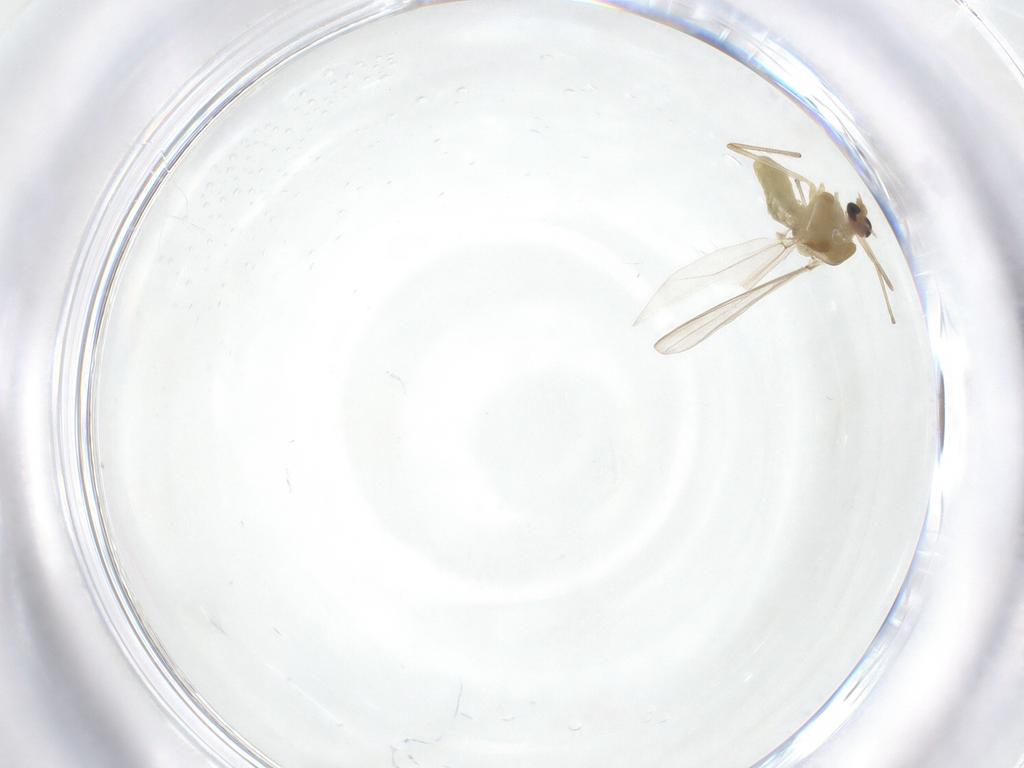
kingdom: Animalia
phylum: Arthropoda
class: Insecta
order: Diptera
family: Chironomidae
